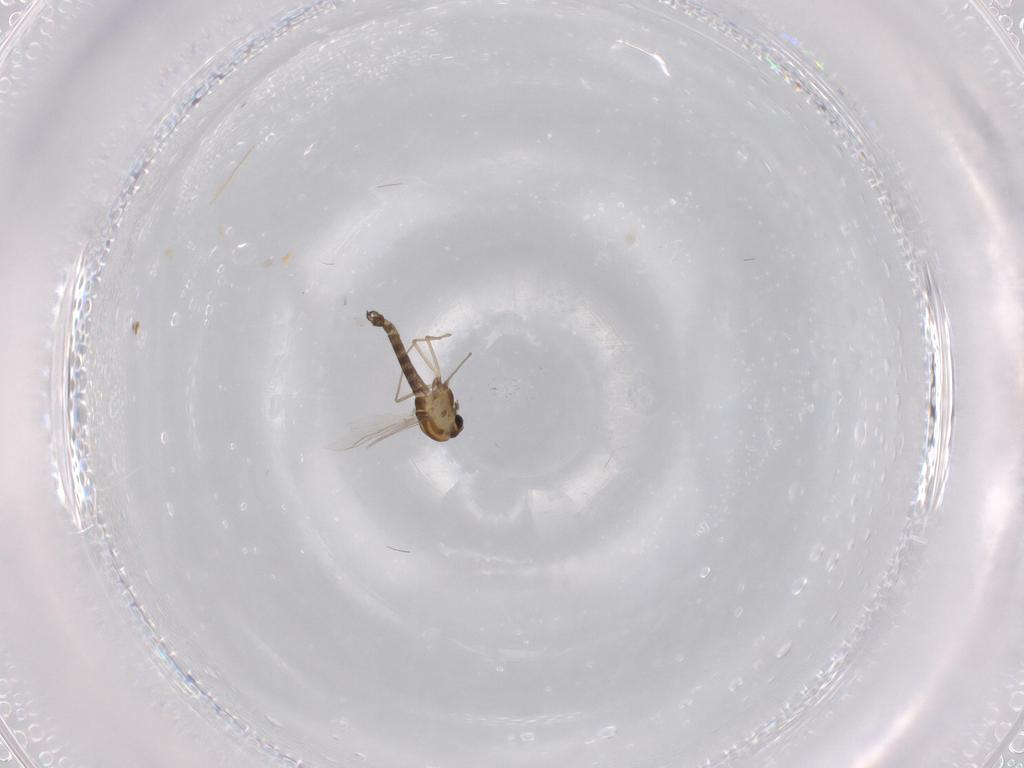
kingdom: Animalia
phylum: Arthropoda
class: Insecta
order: Diptera
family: Chironomidae
